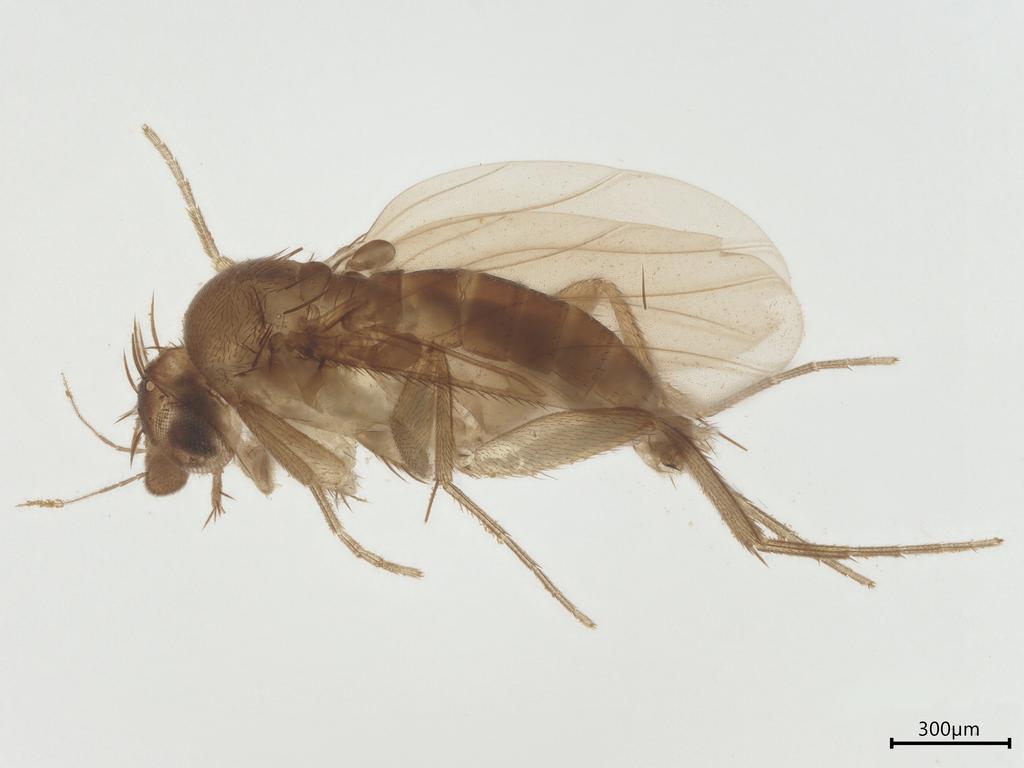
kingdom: Animalia
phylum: Arthropoda
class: Insecta
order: Diptera
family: Phoridae
